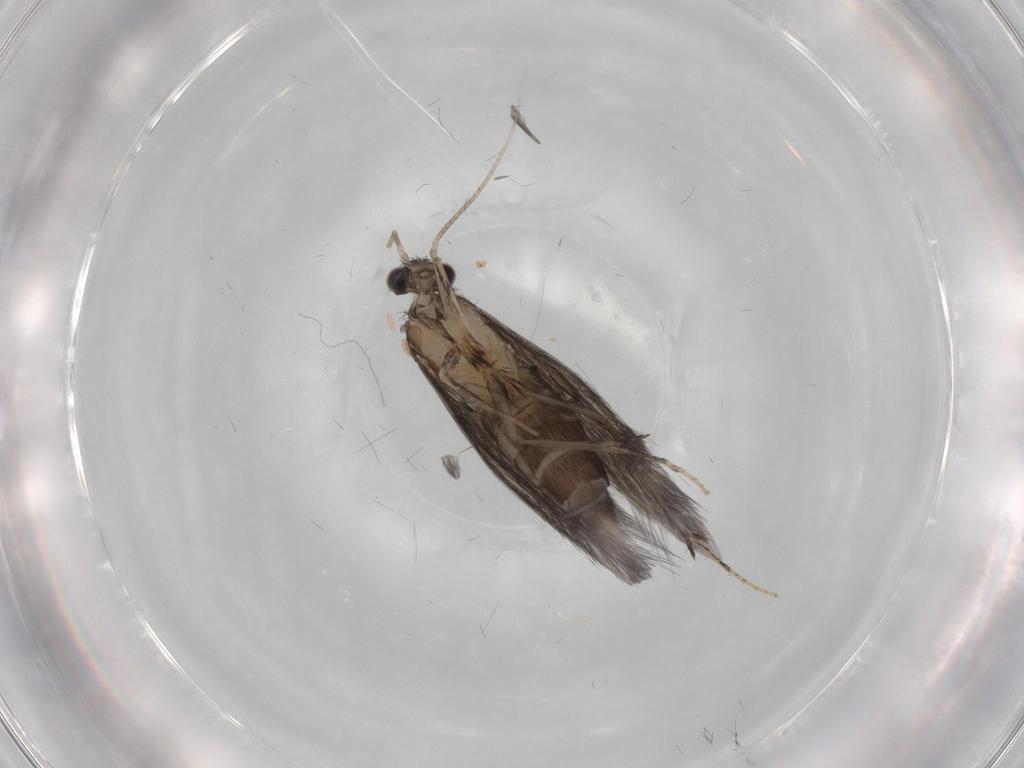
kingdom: Animalia
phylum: Arthropoda
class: Insecta
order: Trichoptera
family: Hydroptilidae
